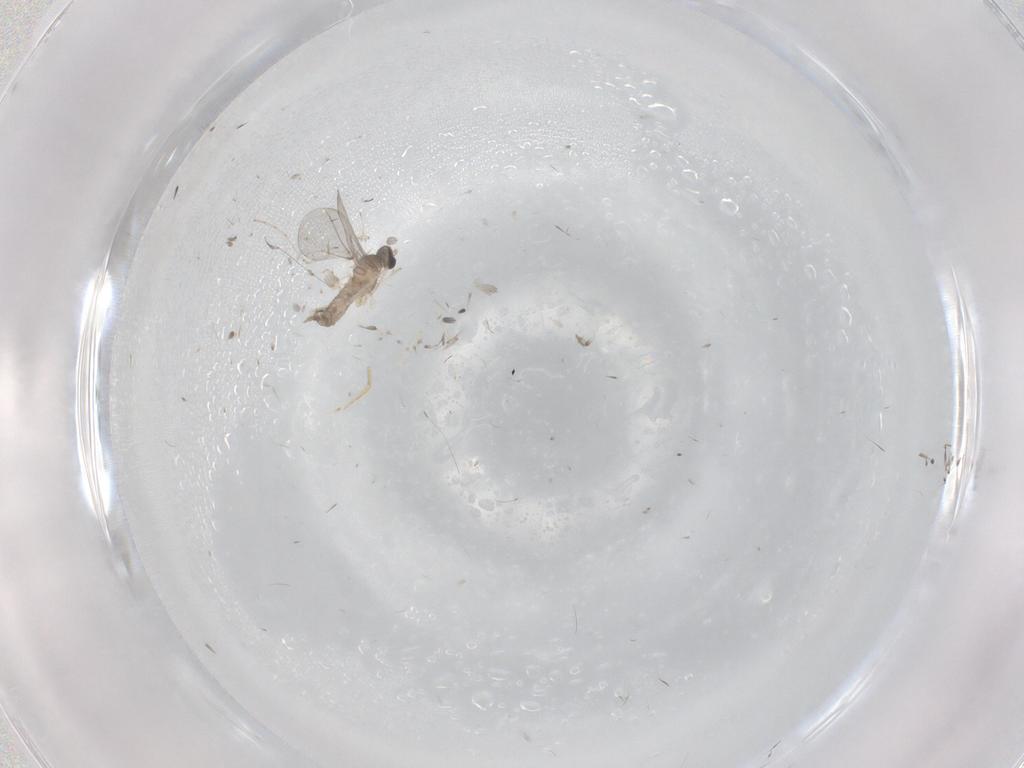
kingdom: Animalia
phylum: Arthropoda
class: Insecta
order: Diptera
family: Cecidomyiidae
